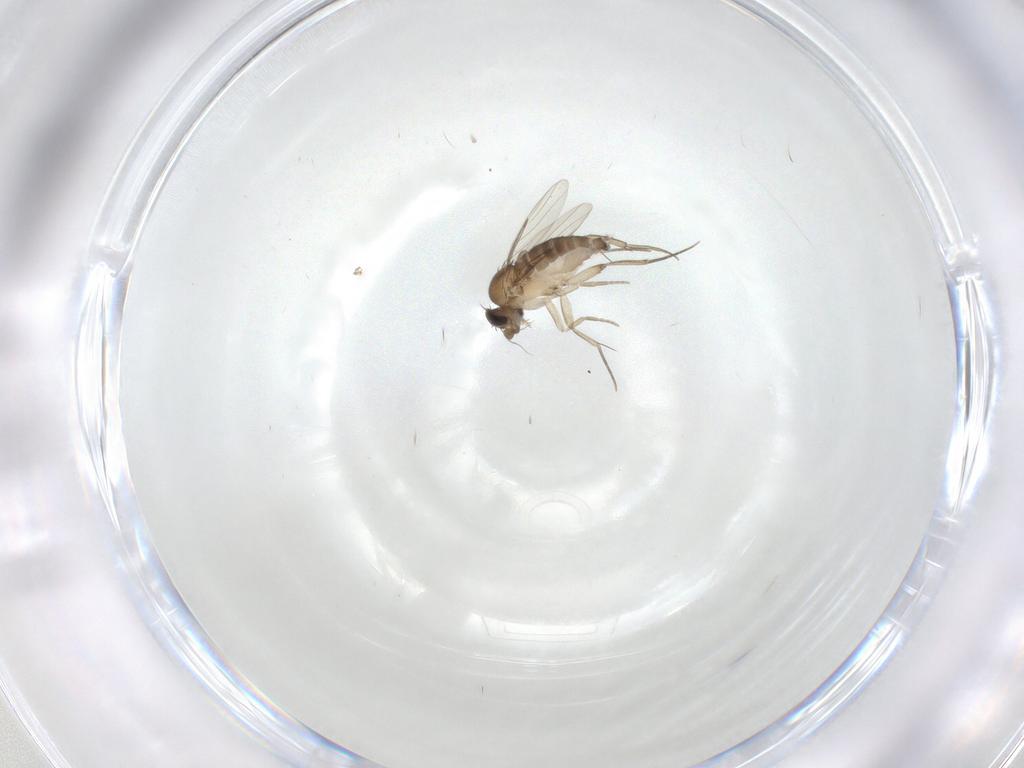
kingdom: Animalia
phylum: Arthropoda
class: Insecta
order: Diptera
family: Phoridae
